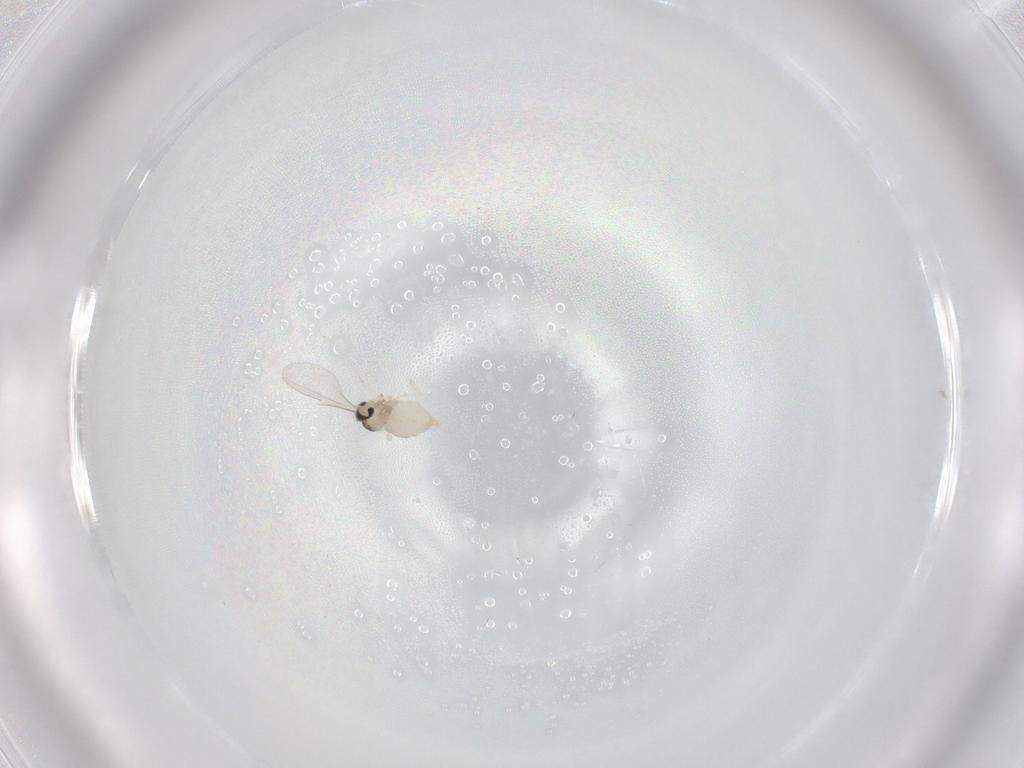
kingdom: Animalia
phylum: Arthropoda
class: Insecta
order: Diptera
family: Cecidomyiidae
